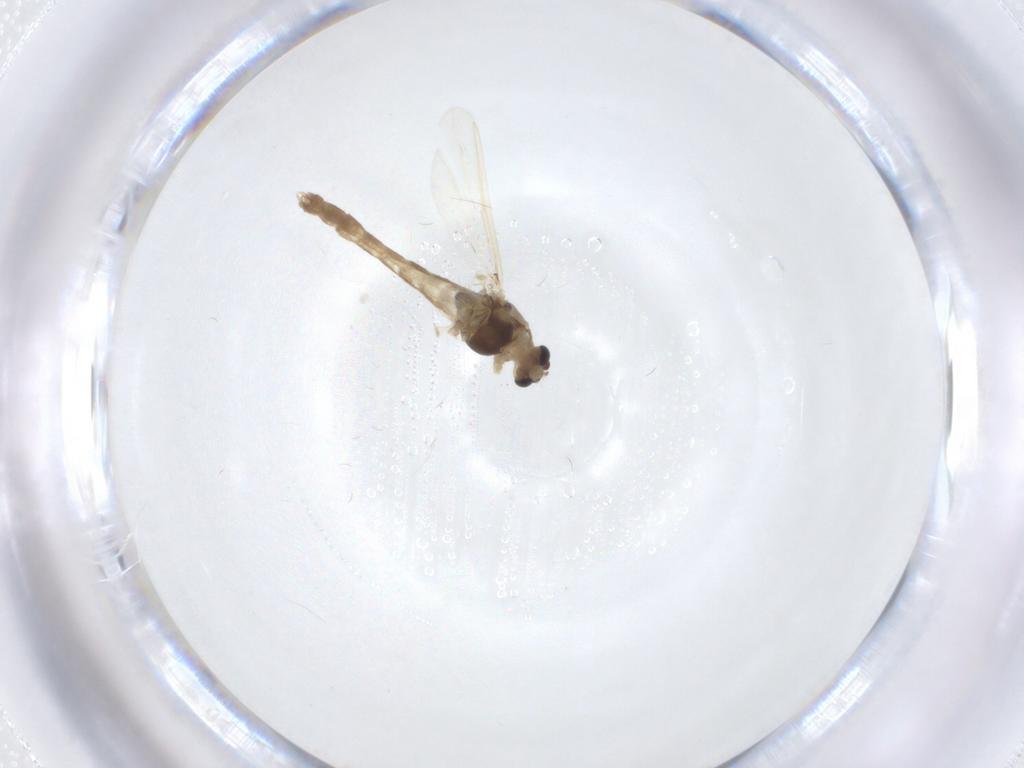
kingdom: Animalia
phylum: Arthropoda
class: Insecta
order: Diptera
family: Chironomidae
